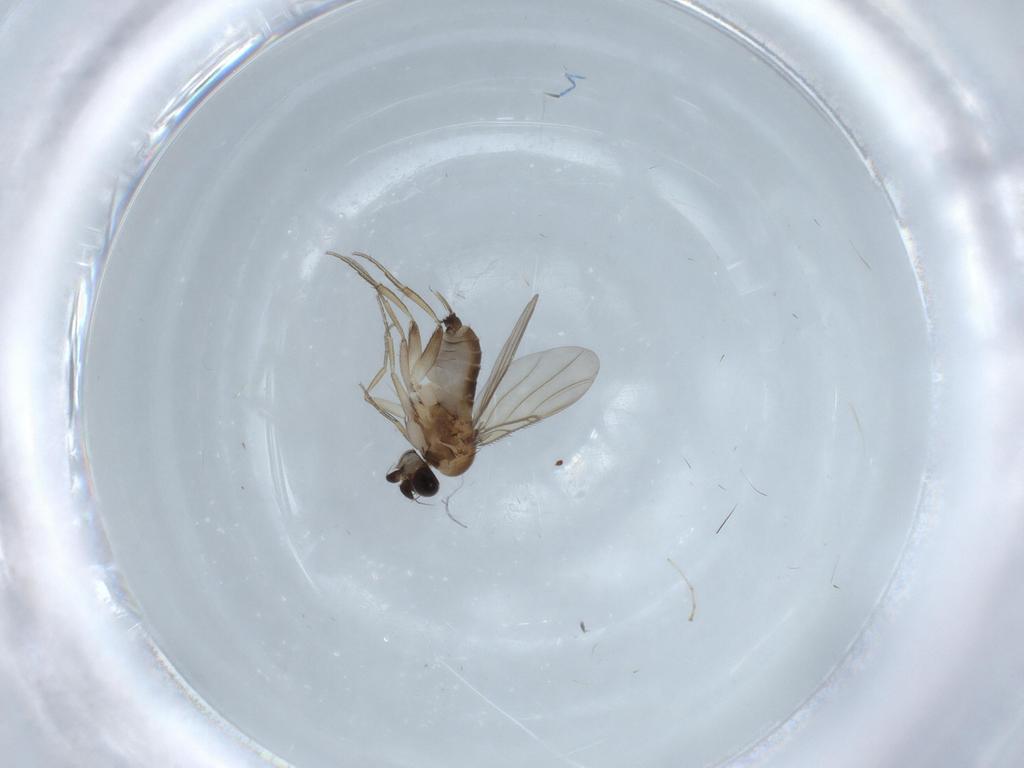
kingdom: Animalia
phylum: Arthropoda
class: Insecta
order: Diptera
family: Phoridae
